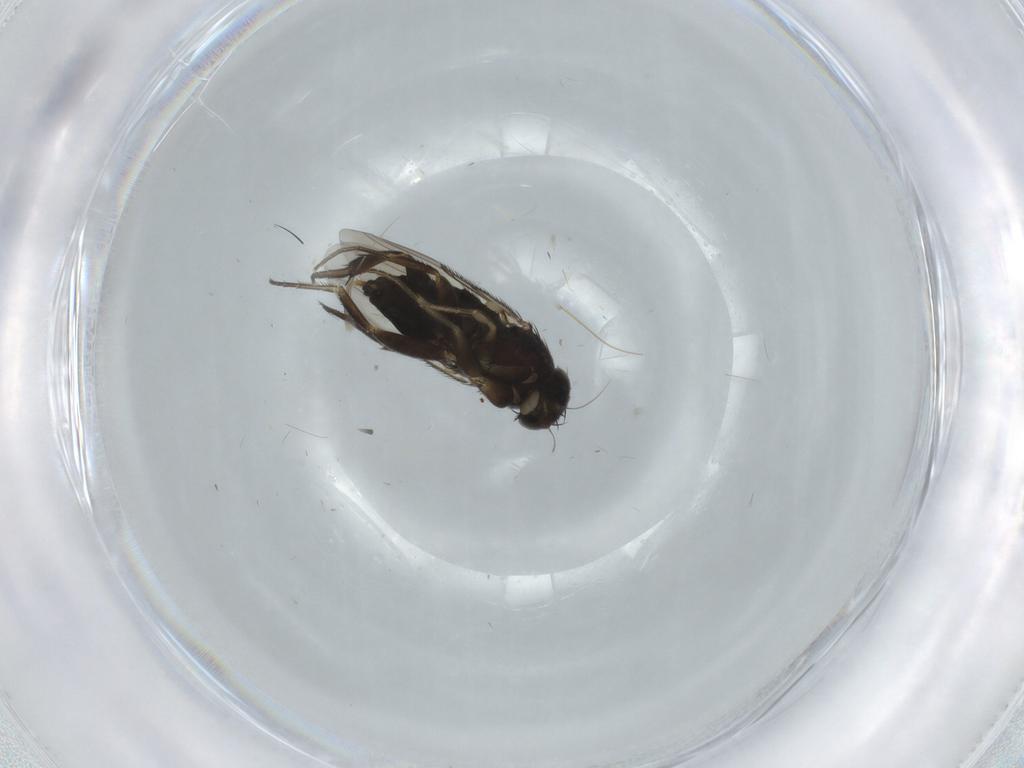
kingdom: Animalia
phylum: Arthropoda
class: Insecta
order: Diptera
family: Phoridae
